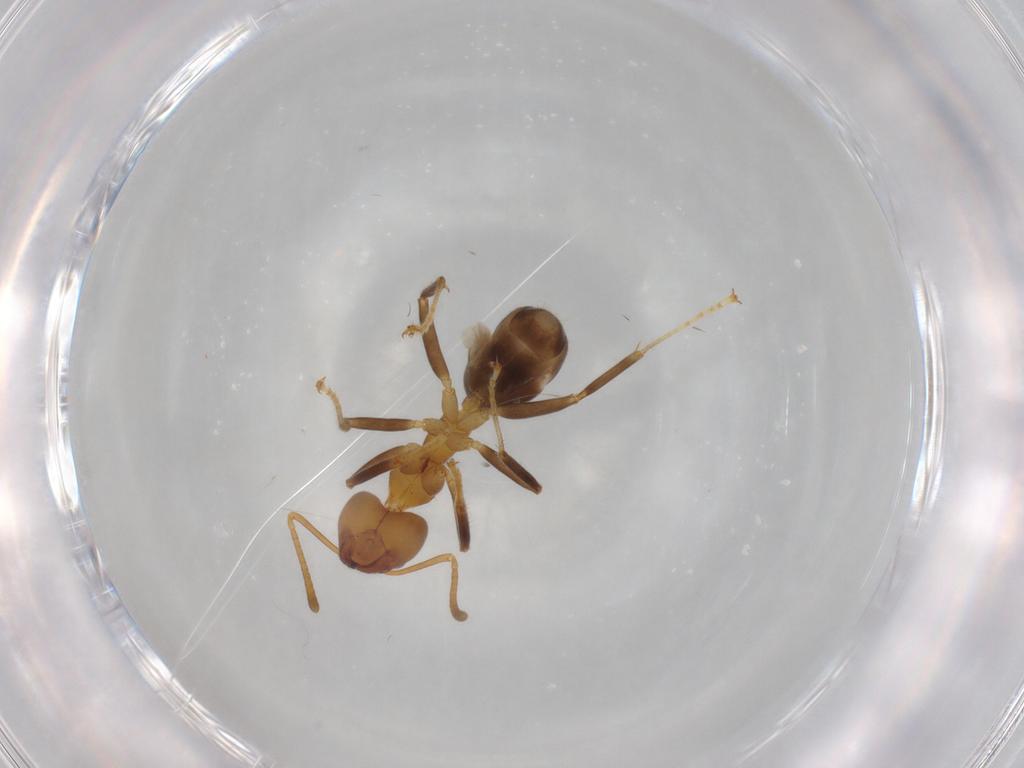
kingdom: Animalia
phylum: Arthropoda
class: Insecta
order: Hymenoptera
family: Formicidae
